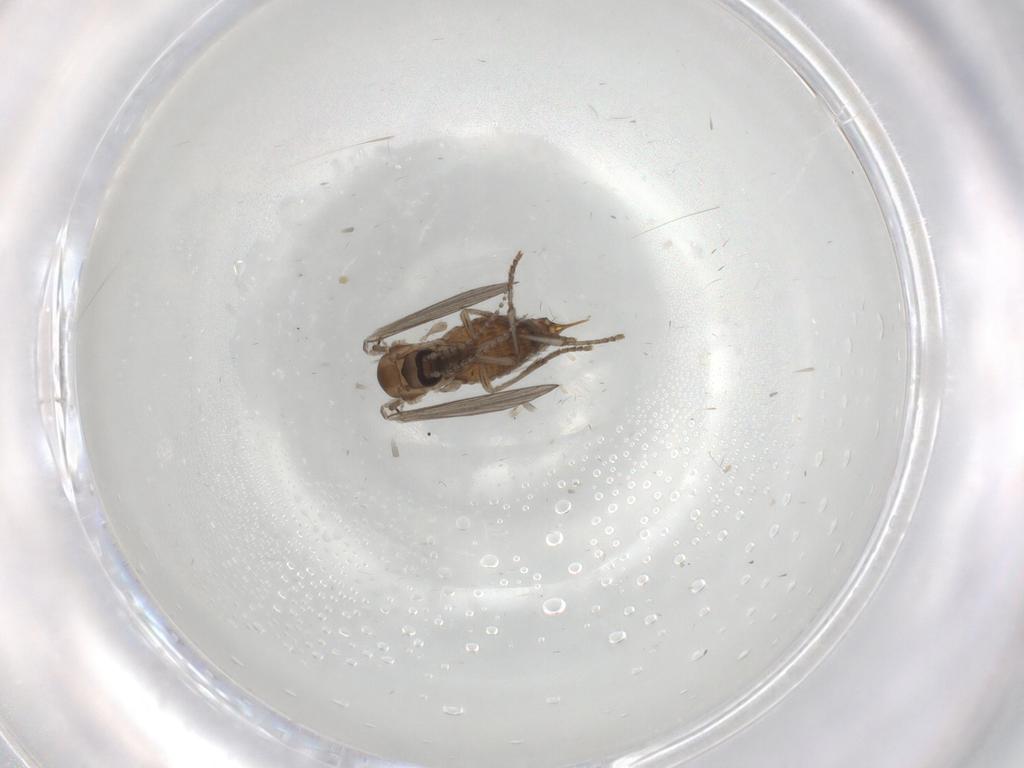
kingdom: Animalia
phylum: Arthropoda
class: Insecta
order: Diptera
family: Psychodidae
